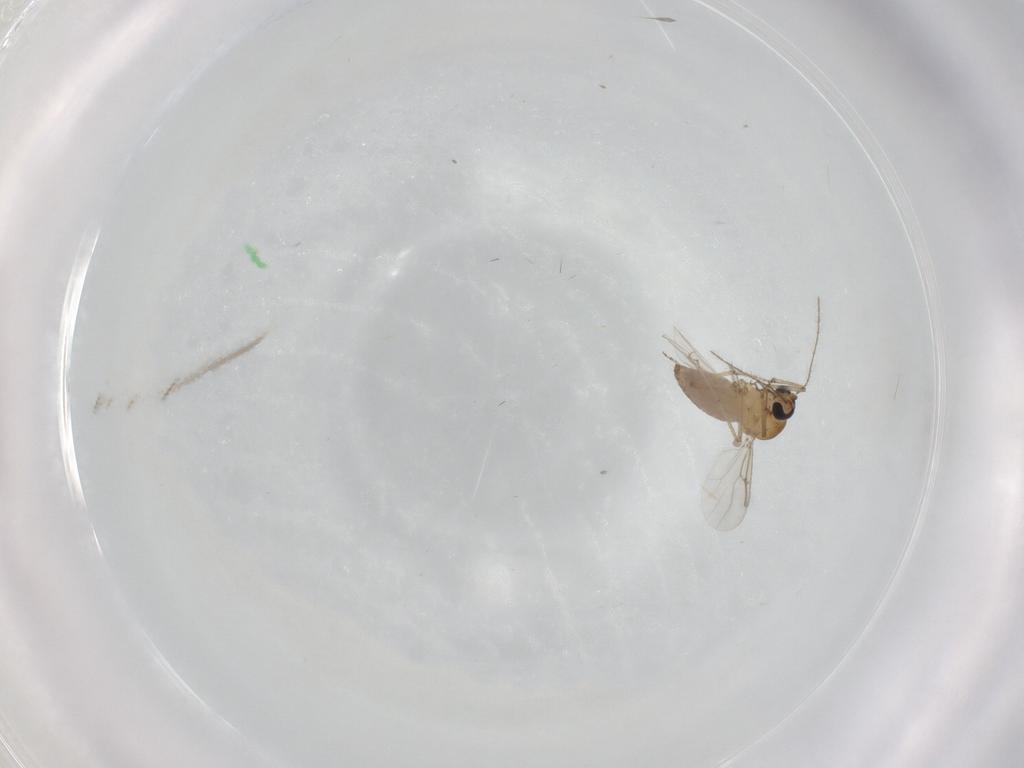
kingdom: Animalia
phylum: Arthropoda
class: Insecta
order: Diptera
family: Cecidomyiidae
